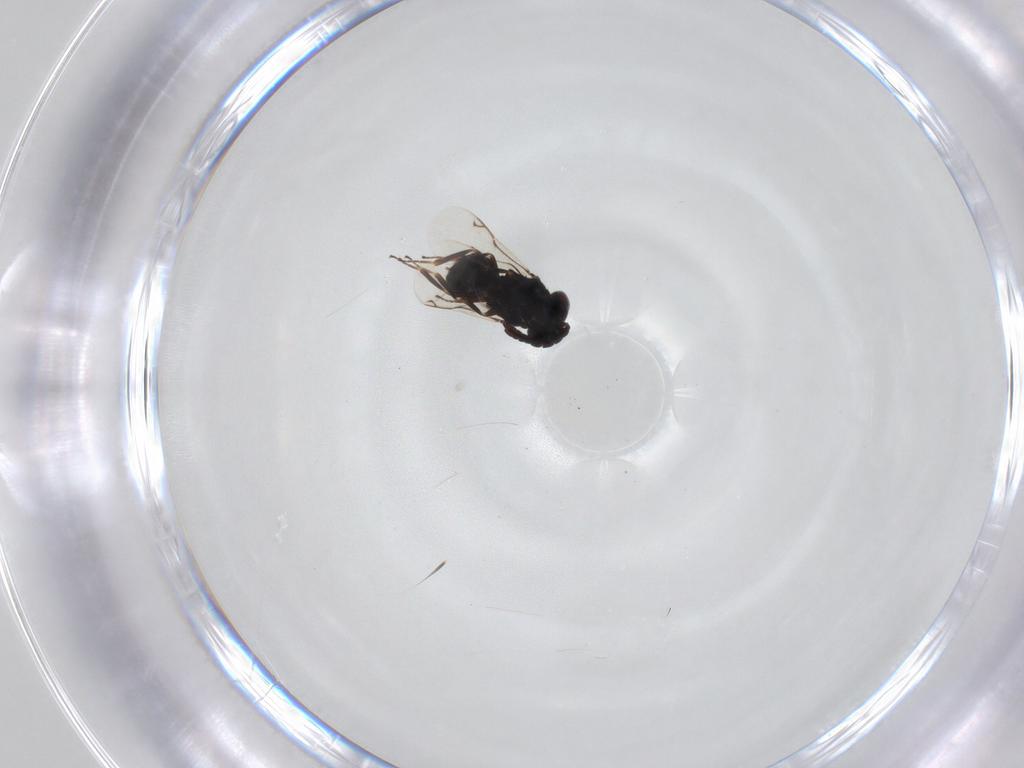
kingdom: Animalia
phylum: Arthropoda
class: Insecta
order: Hymenoptera
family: Eunotidae
